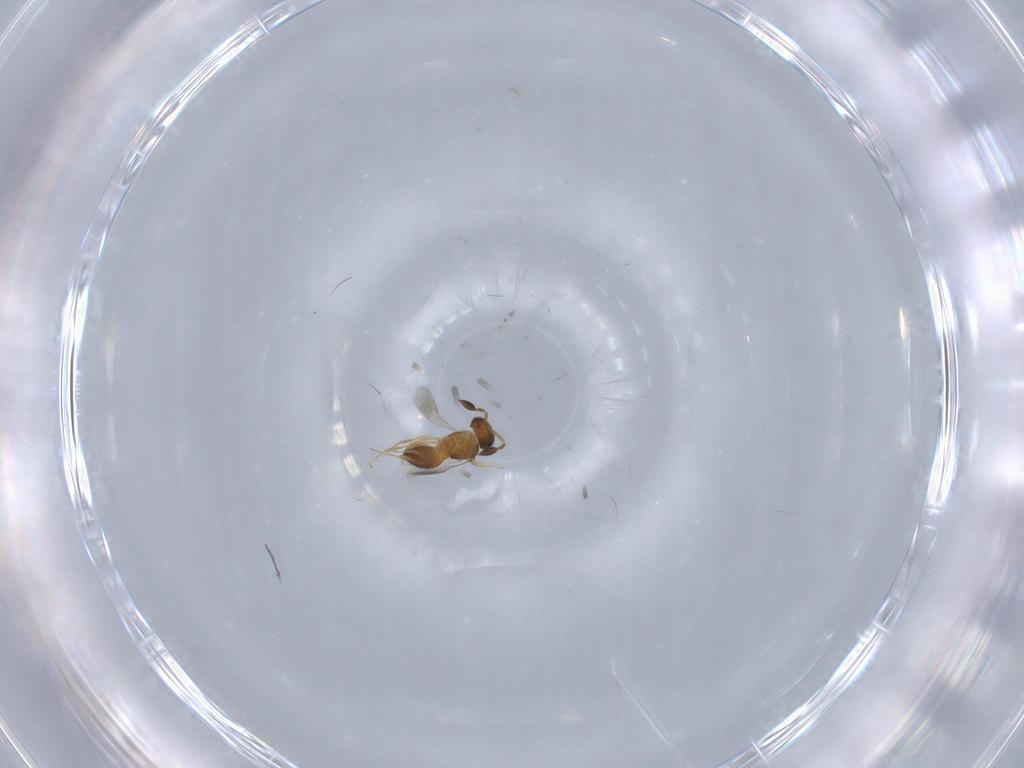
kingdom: Animalia
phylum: Arthropoda
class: Insecta
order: Hymenoptera
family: Scelionidae
